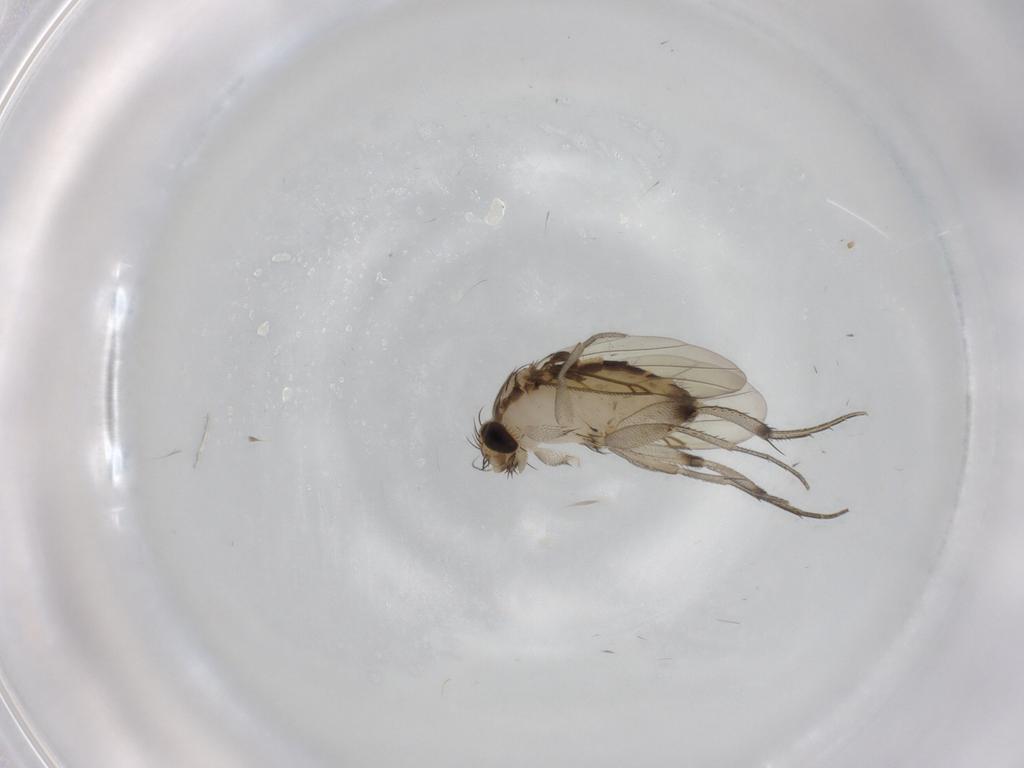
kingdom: Animalia
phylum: Arthropoda
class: Insecta
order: Diptera
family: Phoridae
